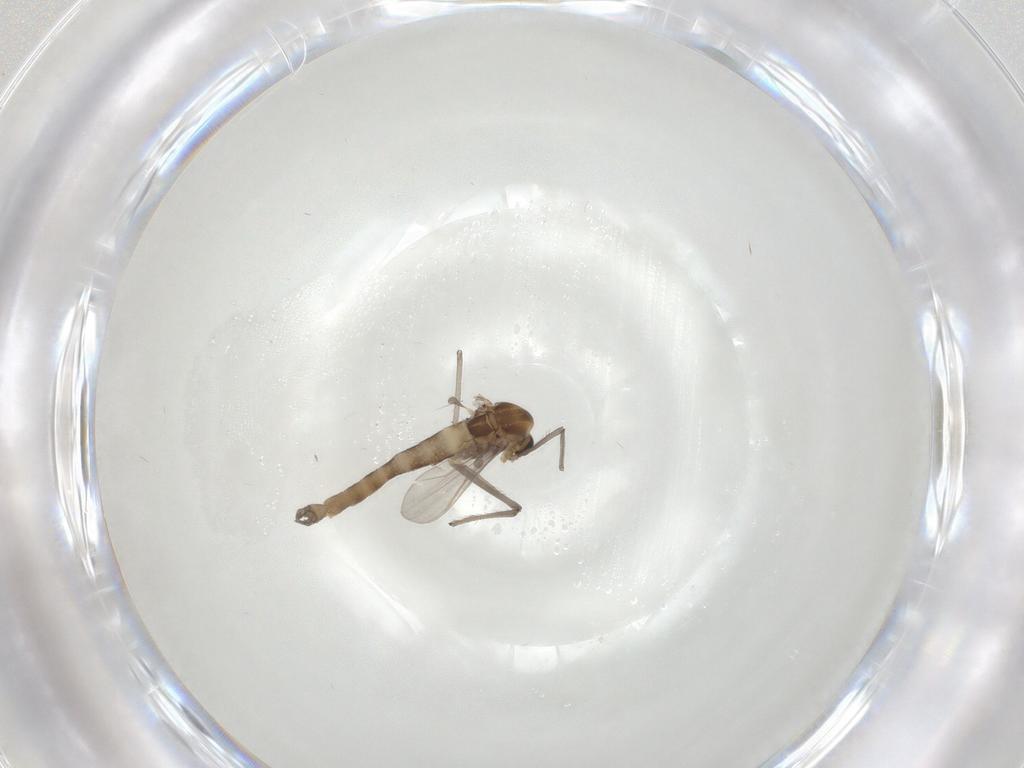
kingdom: Animalia
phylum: Arthropoda
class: Insecta
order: Diptera
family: Chironomidae
